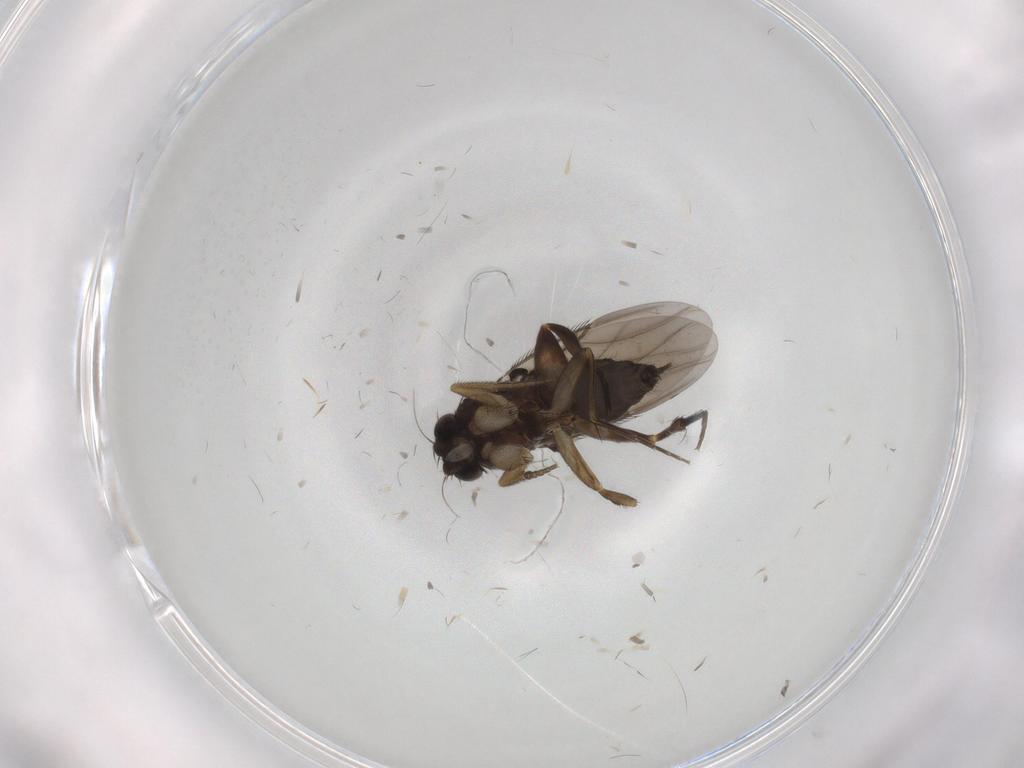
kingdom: Animalia
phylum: Arthropoda
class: Insecta
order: Diptera
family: Phoridae
